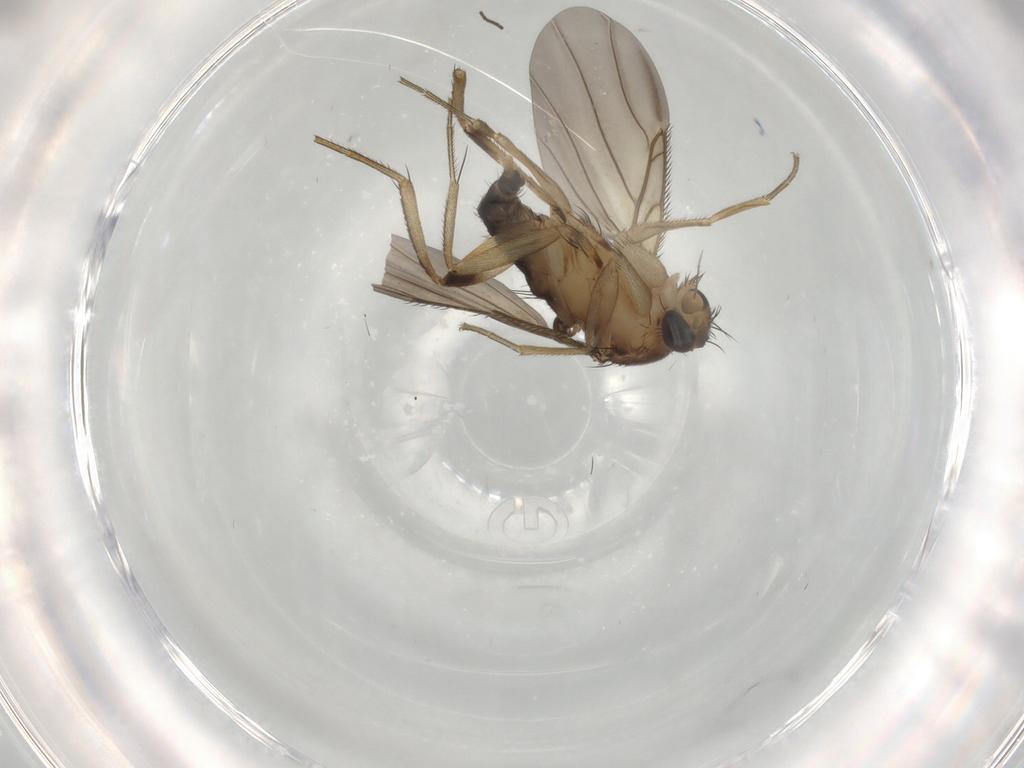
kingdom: Animalia
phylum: Arthropoda
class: Insecta
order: Diptera
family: Phoridae
